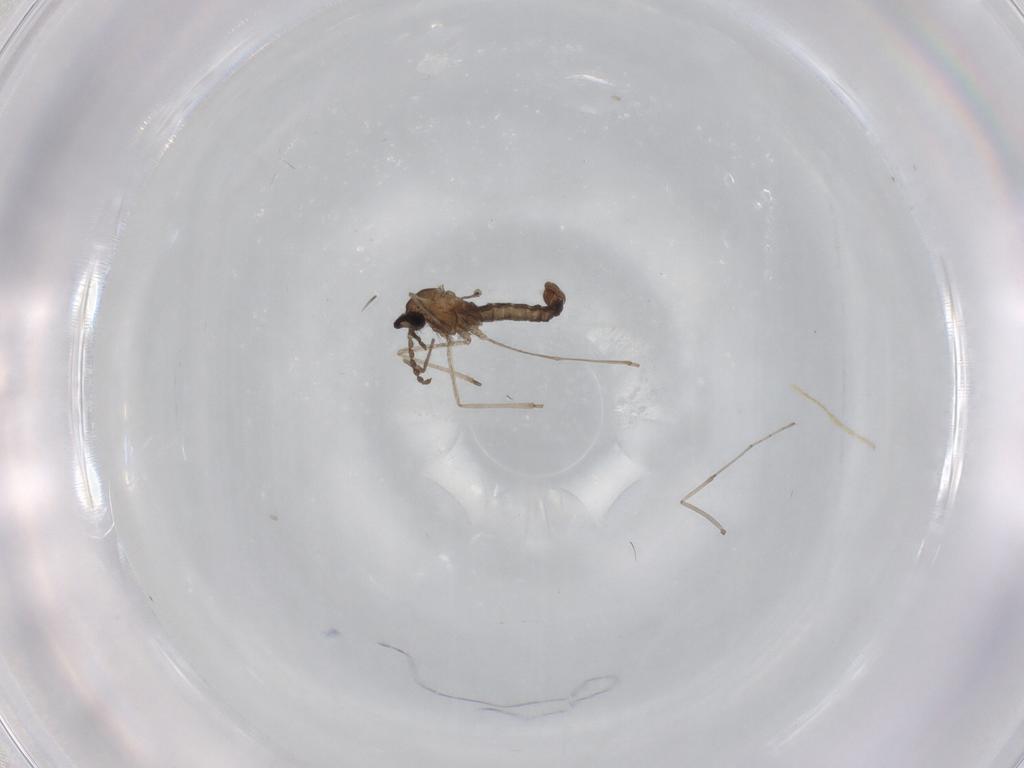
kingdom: Animalia
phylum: Arthropoda
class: Insecta
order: Diptera
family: Cecidomyiidae
